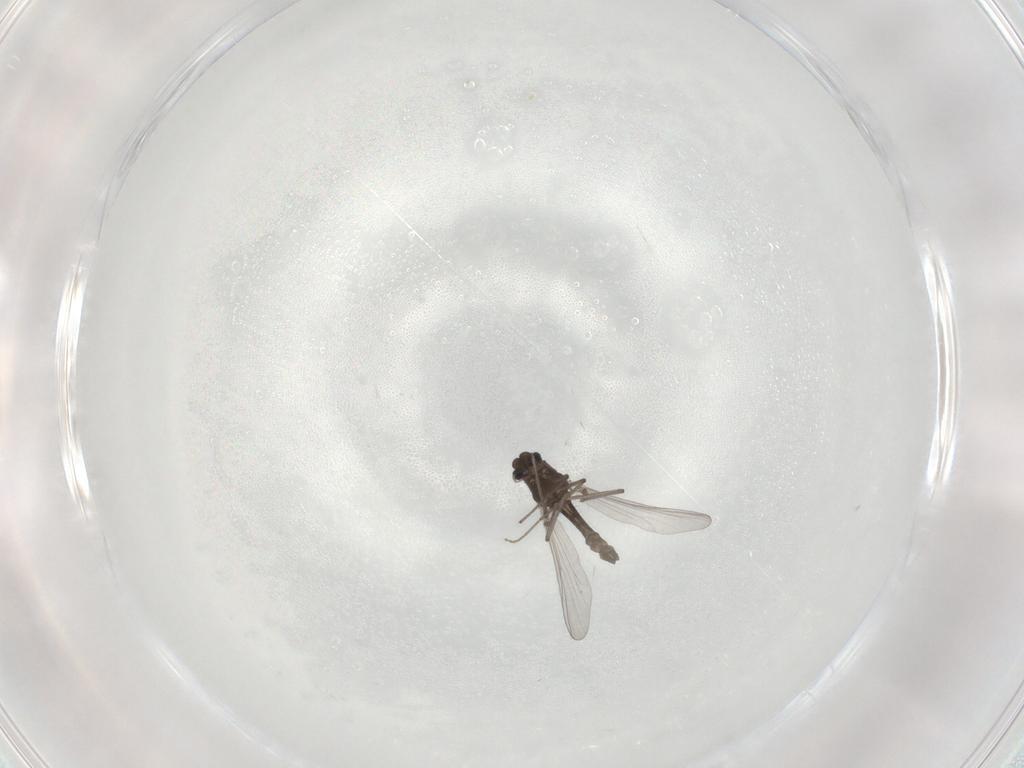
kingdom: Animalia
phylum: Arthropoda
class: Insecta
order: Diptera
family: Chironomidae
